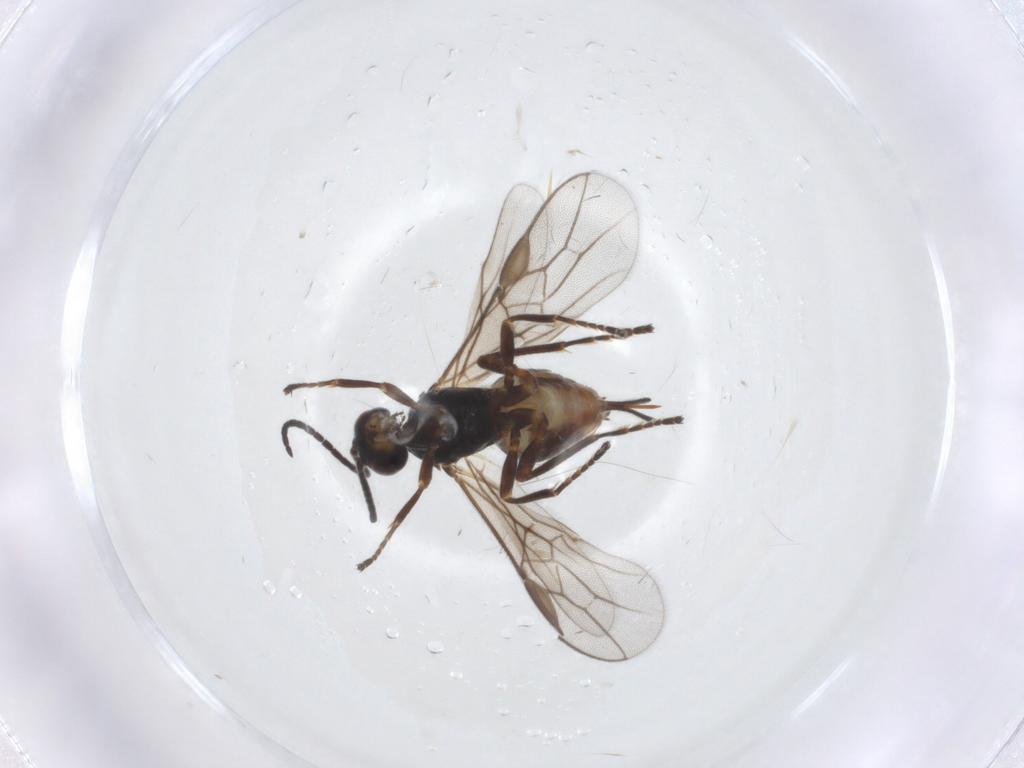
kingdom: Animalia
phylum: Arthropoda
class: Insecta
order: Hymenoptera
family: Braconidae
